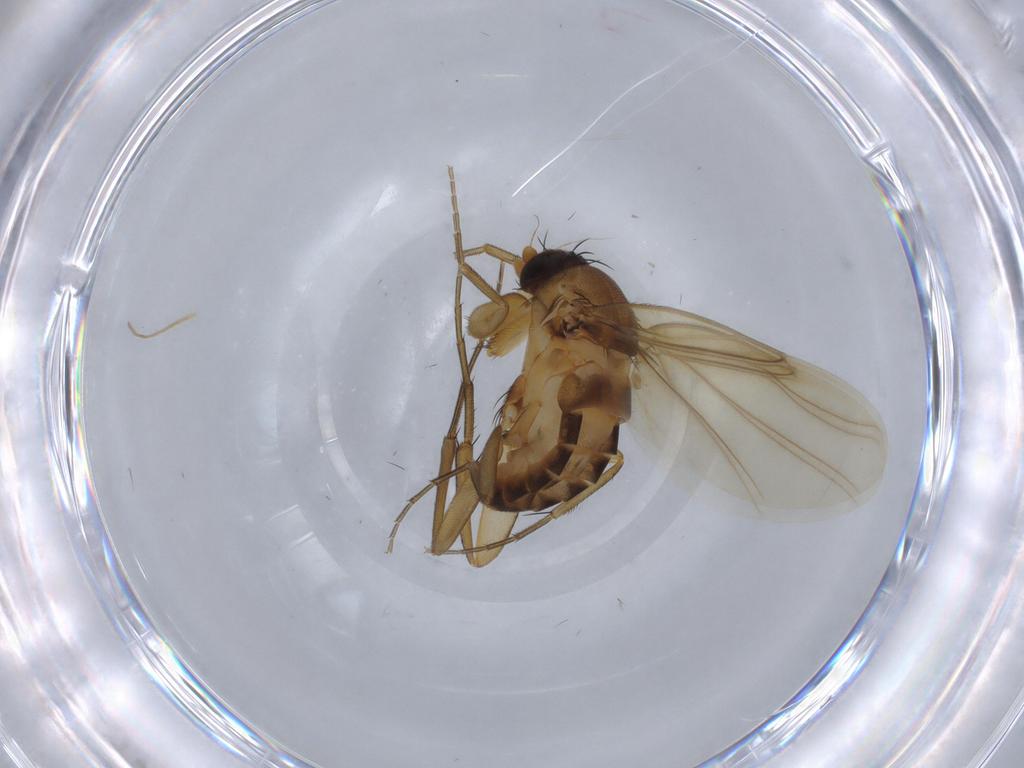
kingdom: Animalia
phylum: Arthropoda
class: Insecta
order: Diptera
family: Phoridae
